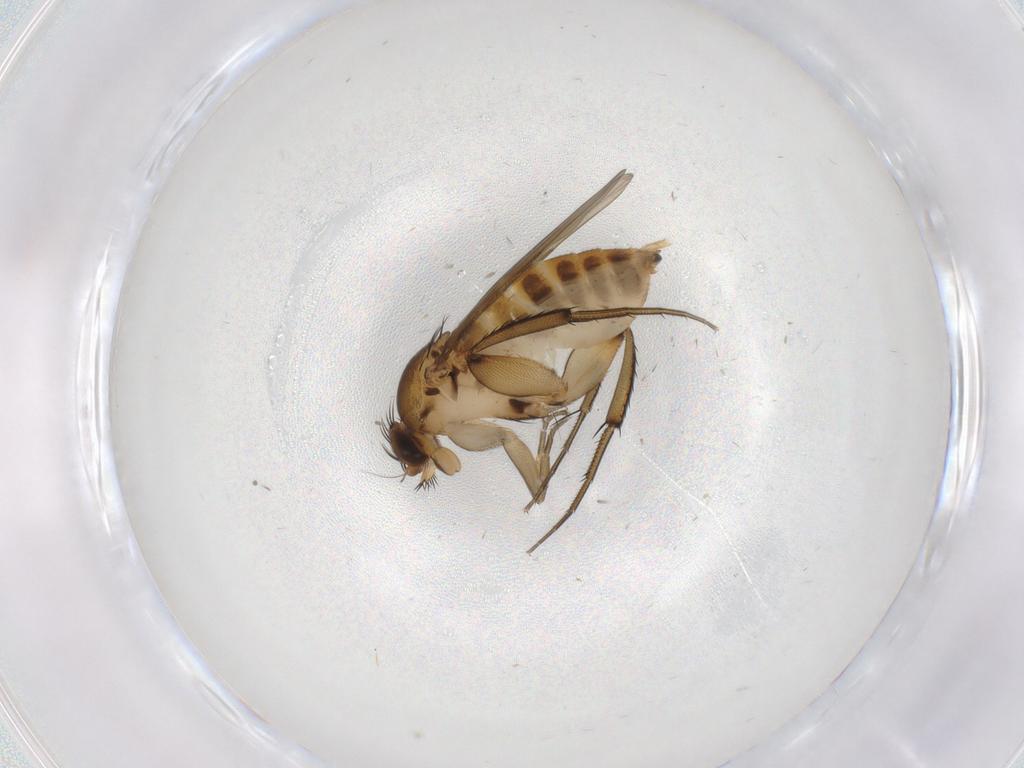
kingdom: Animalia
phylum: Arthropoda
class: Insecta
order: Diptera
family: Phoridae
